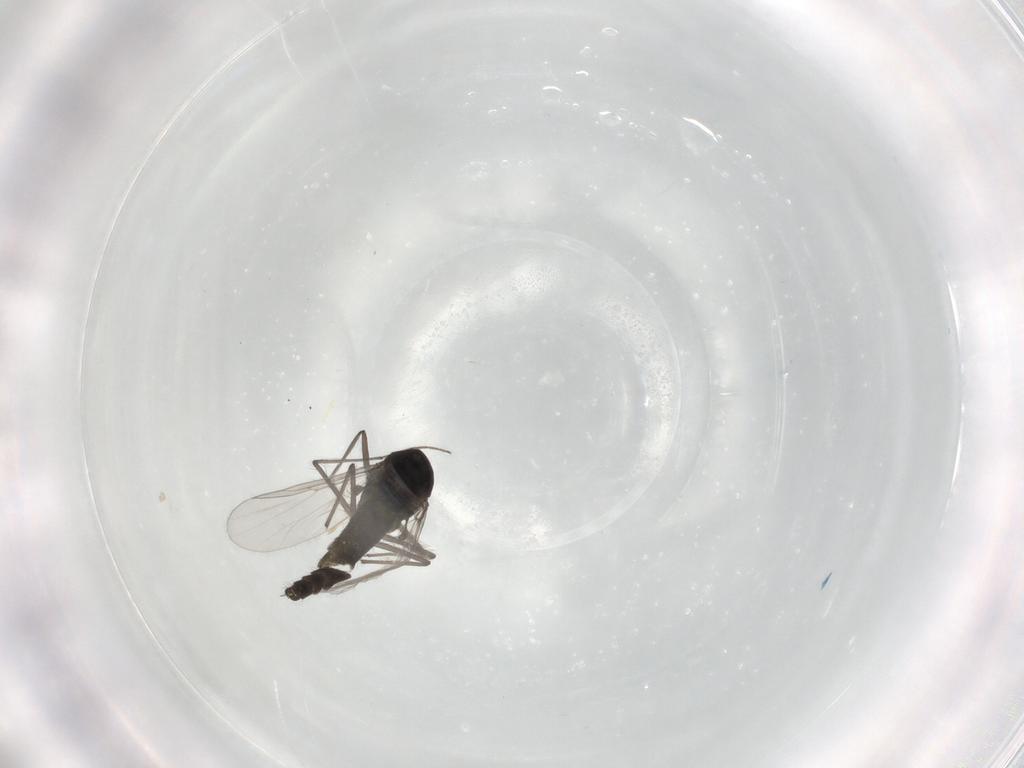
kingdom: Animalia
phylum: Arthropoda
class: Insecta
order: Diptera
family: Chironomidae
